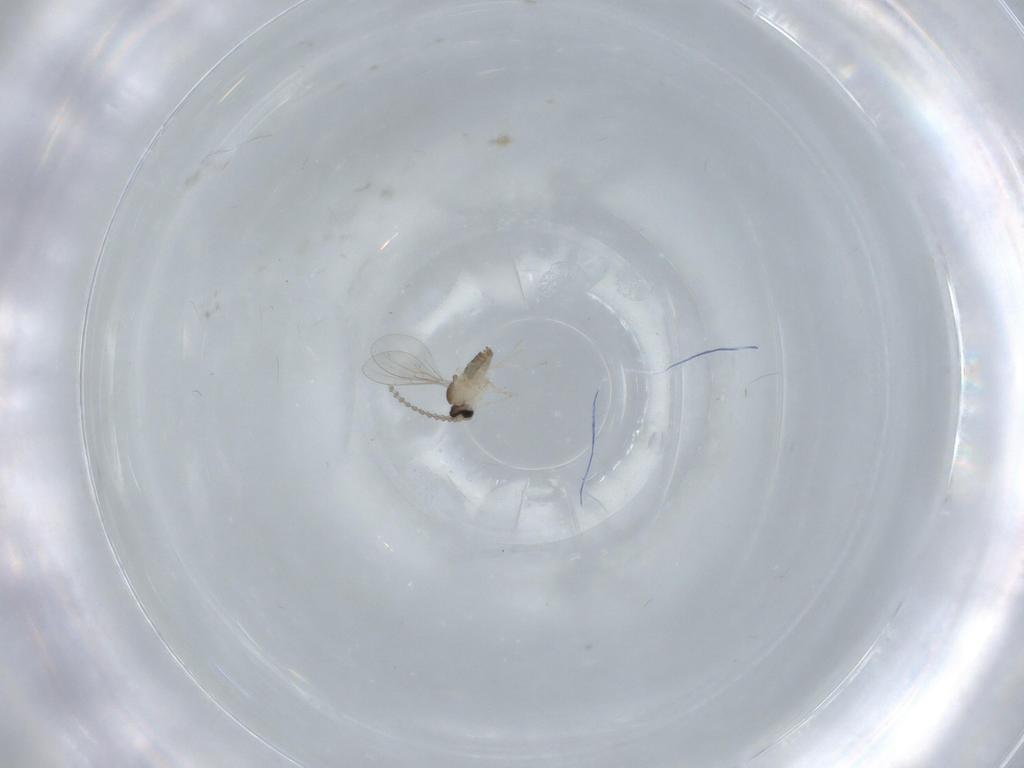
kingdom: Animalia
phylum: Arthropoda
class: Insecta
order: Diptera
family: Cecidomyiidae
